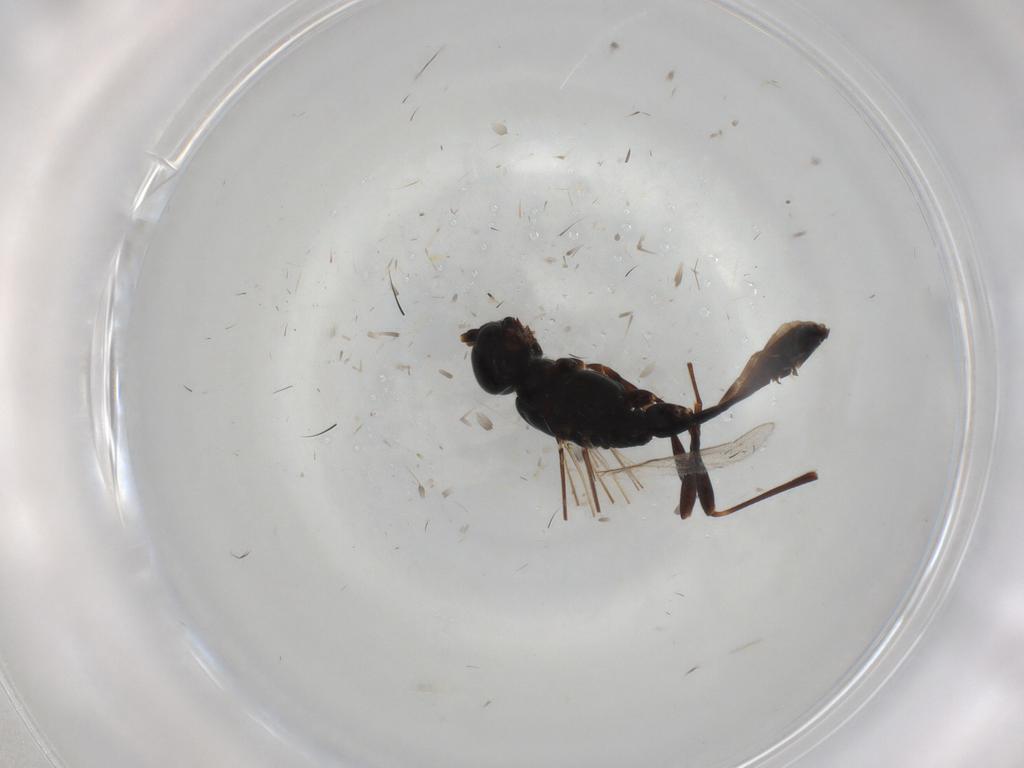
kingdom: Animalia
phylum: Arthropoda
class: Insecta
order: Hymenoptera
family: Braconidae
